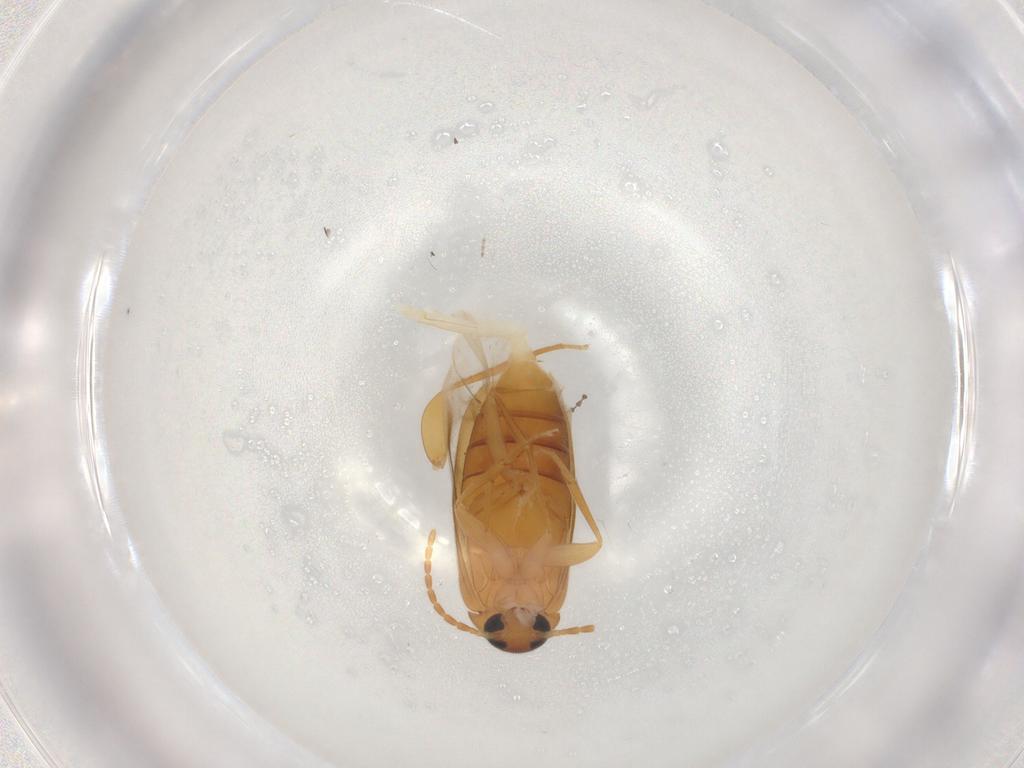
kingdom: Animalia
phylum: Arthropoda
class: Insecta
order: Coleoptera
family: Scraptiidae
